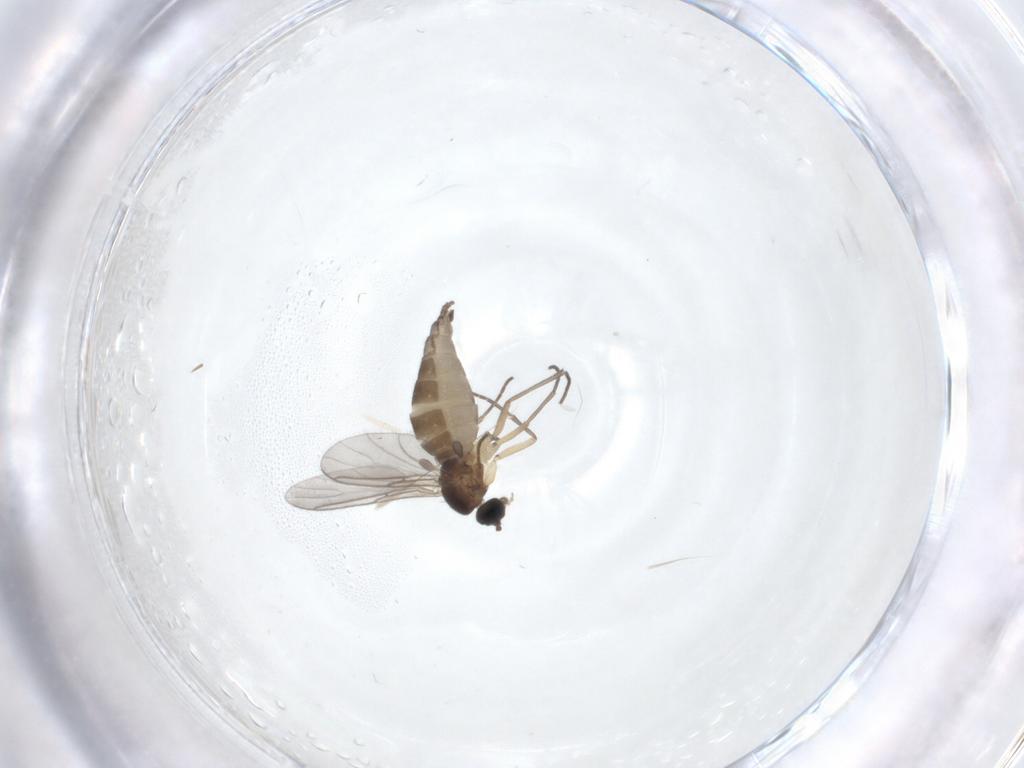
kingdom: Animalia
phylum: Arthropoda
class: Insecta
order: Diptera
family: Sciaridae
